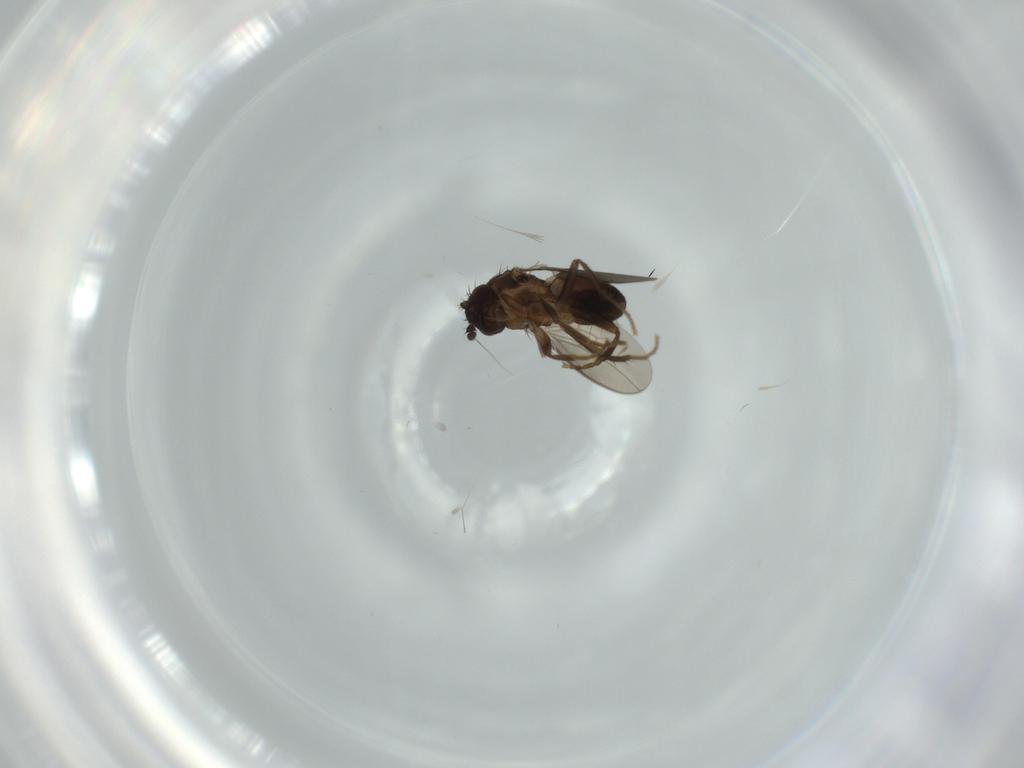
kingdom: Animalia
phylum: Arthropoda
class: Insecta
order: Diptera
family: Sphaeroceridae
